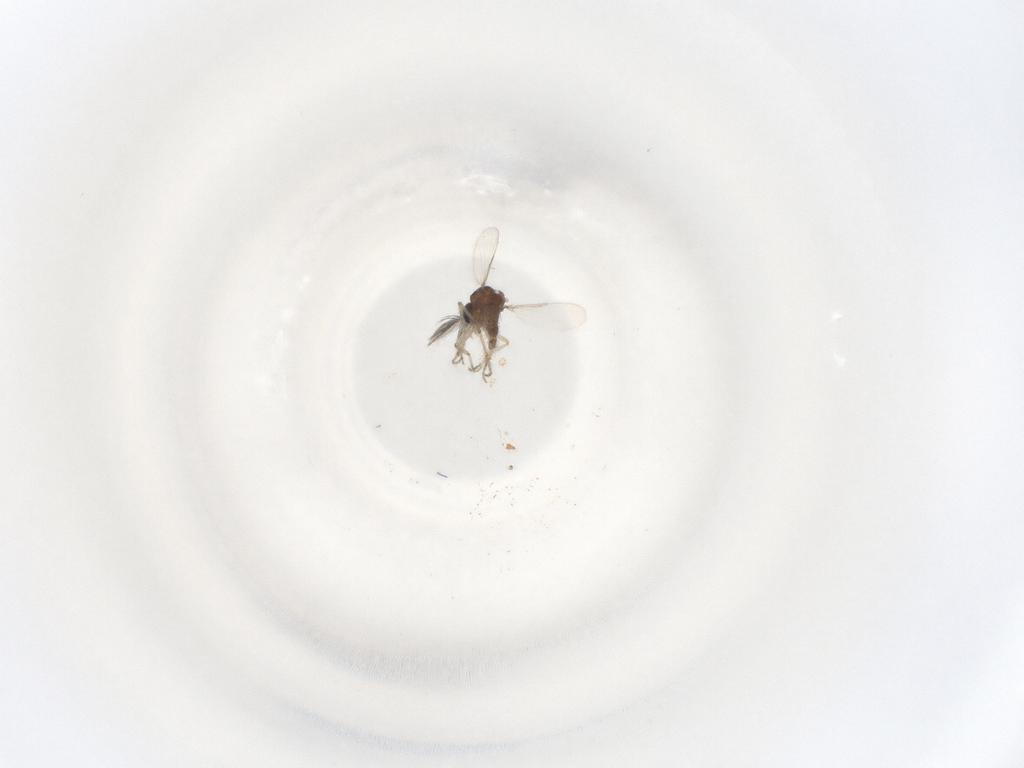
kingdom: Animalia
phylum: Arthropoda
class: Insecta
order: Diptera
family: Ceratopogonidae
